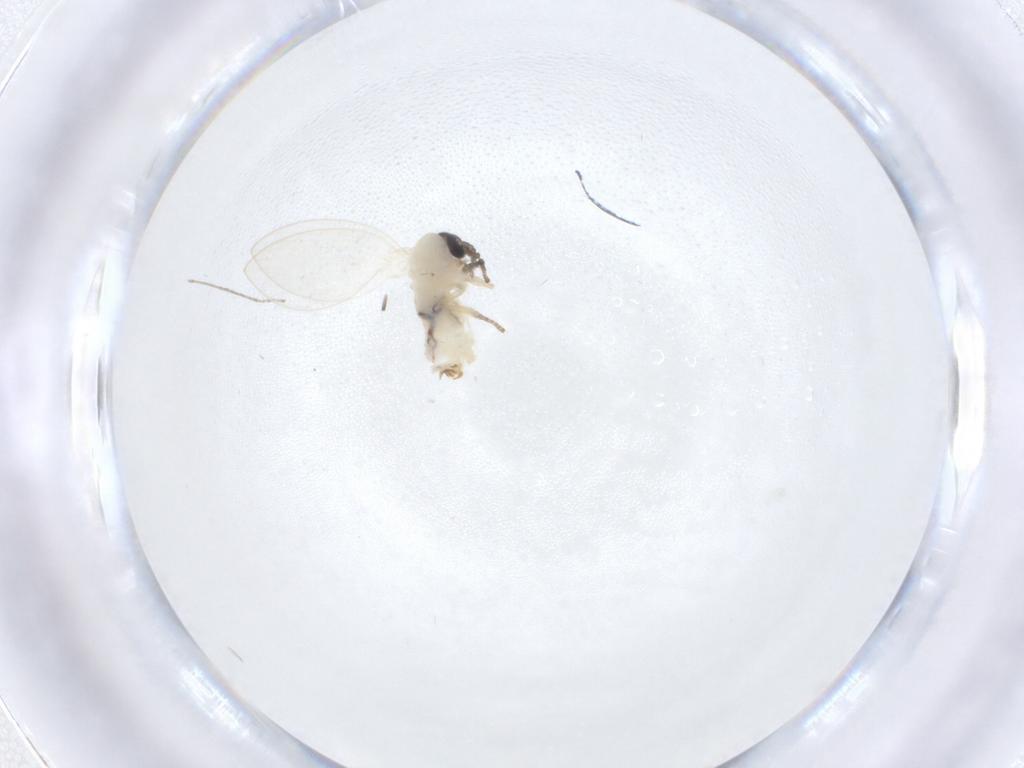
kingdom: Animalia
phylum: Arthropoda
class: Insecta
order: Diptera
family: Psychodidae
